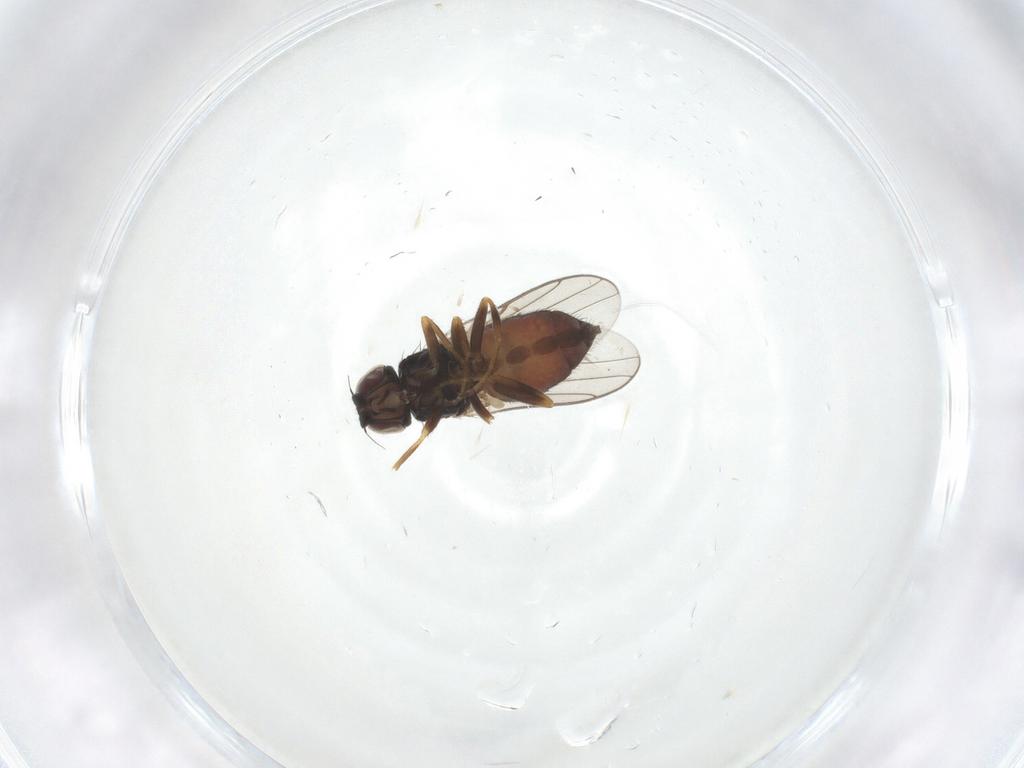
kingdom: Animalia
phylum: Arthropoda
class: Insecta
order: Diptera
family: Chloropidae
